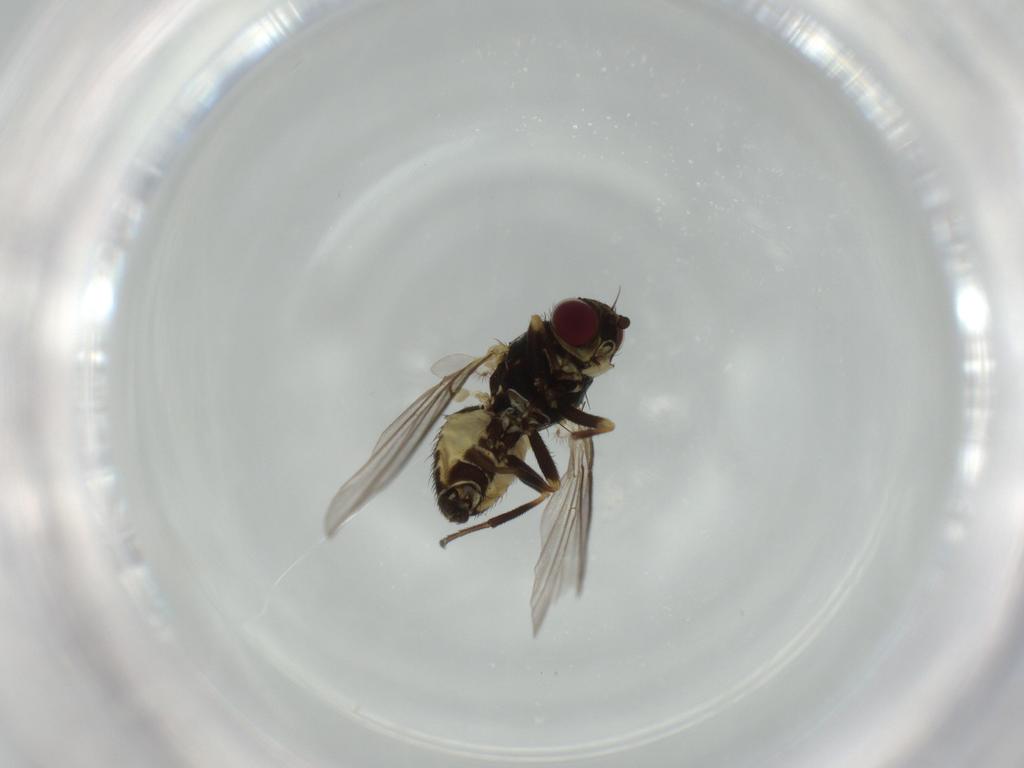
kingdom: Animalia
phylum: Arthropoda
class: Insecta
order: Diptera
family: Agromyzidae
